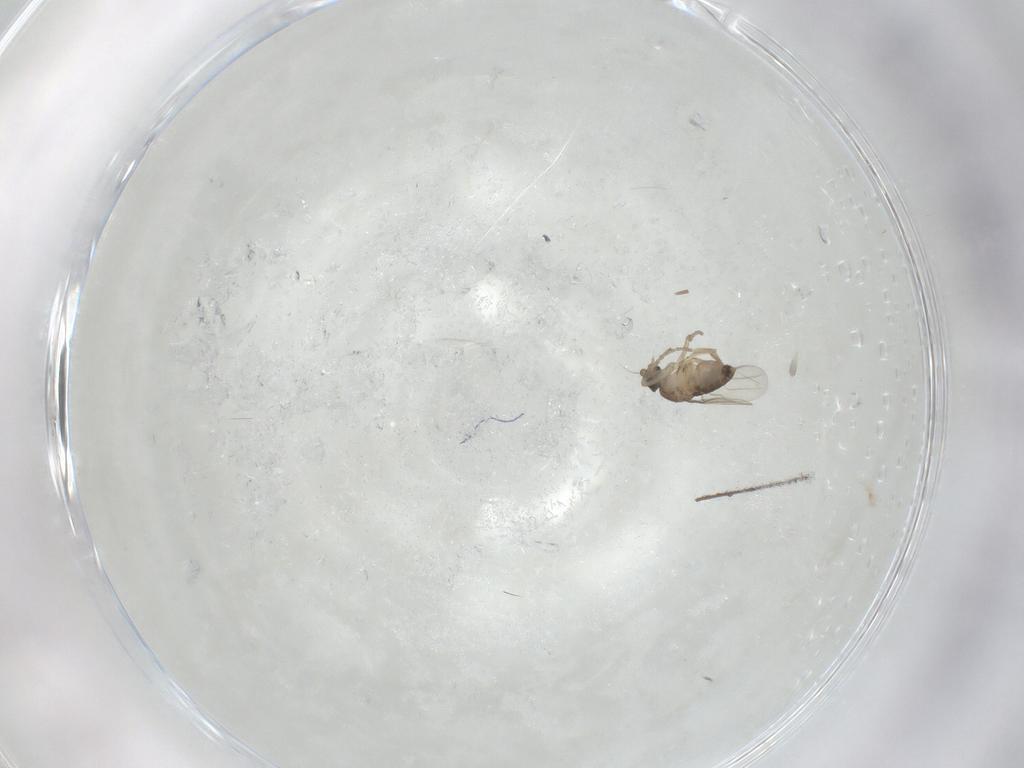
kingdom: Animalia
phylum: Arthropoda
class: Insecta
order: Diptera
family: Phoridae
